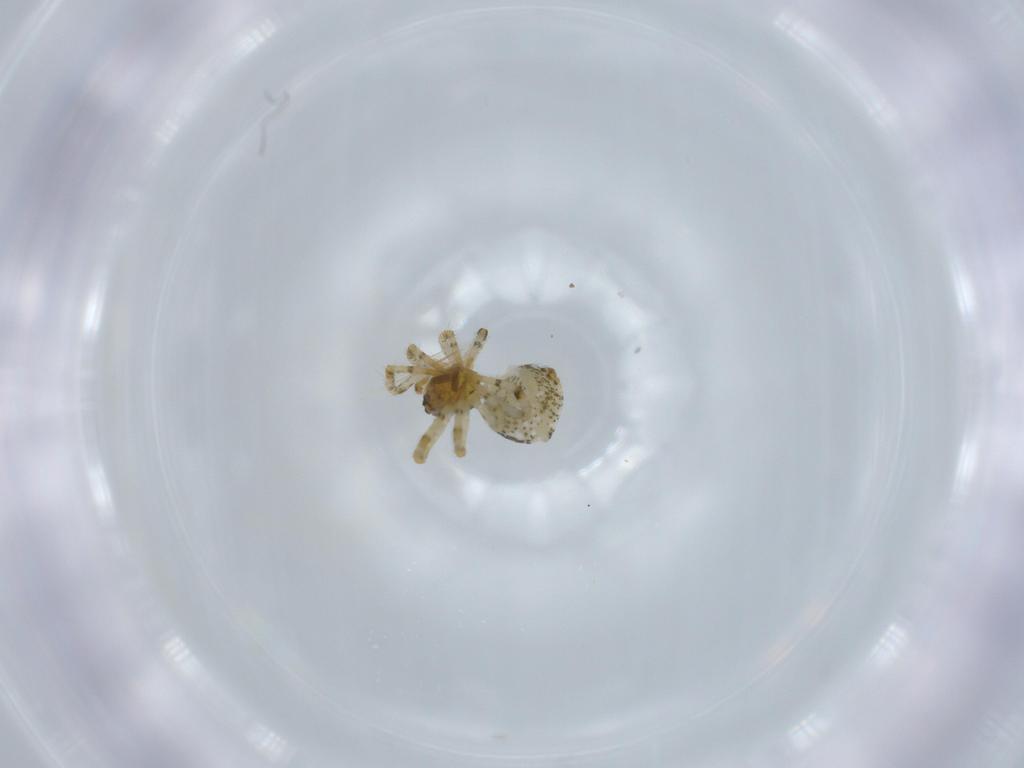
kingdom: Animalia
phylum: Arthropoda
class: Arachnida
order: Araneae
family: Theridiidae
